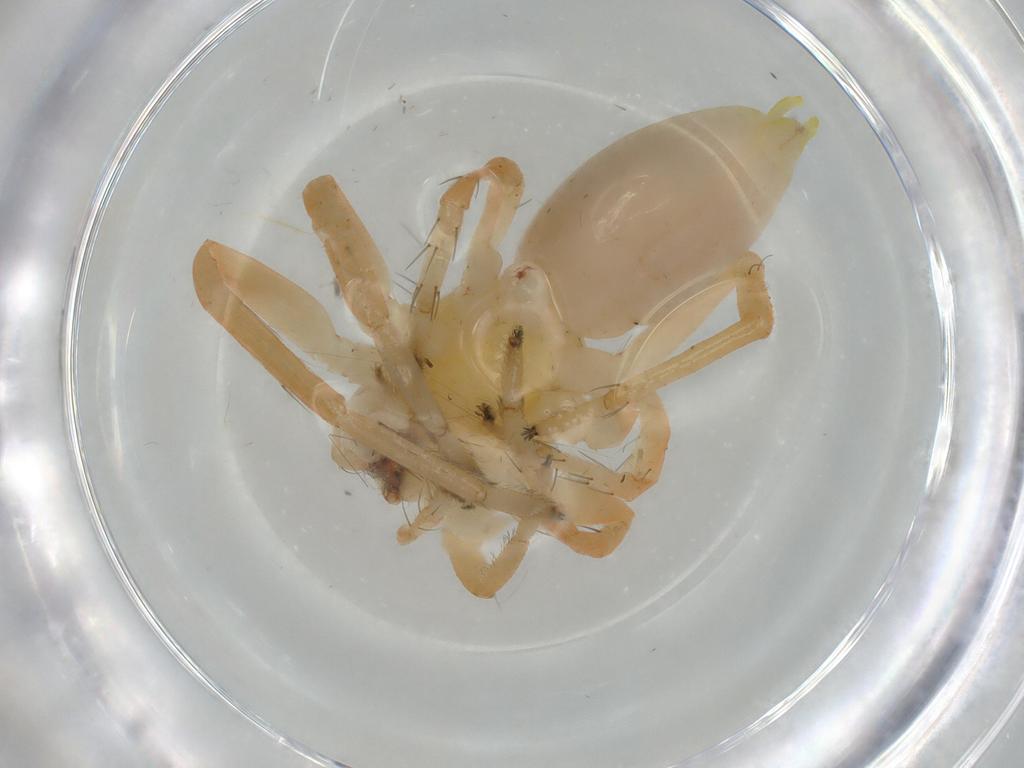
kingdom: Animalia
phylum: Arthropoda
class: Arachnida
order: Araneae
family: Anyphaenidae
